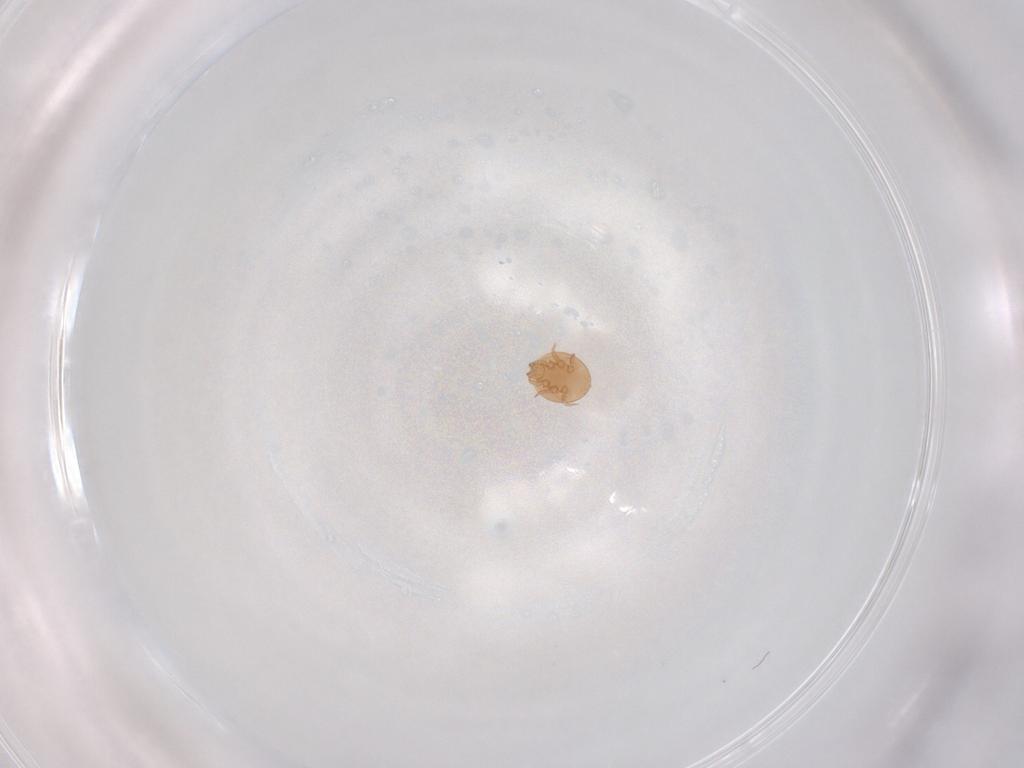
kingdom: Animalia
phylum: Arthropoda
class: Arachnida
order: Mesostigmata
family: Trematuridae
